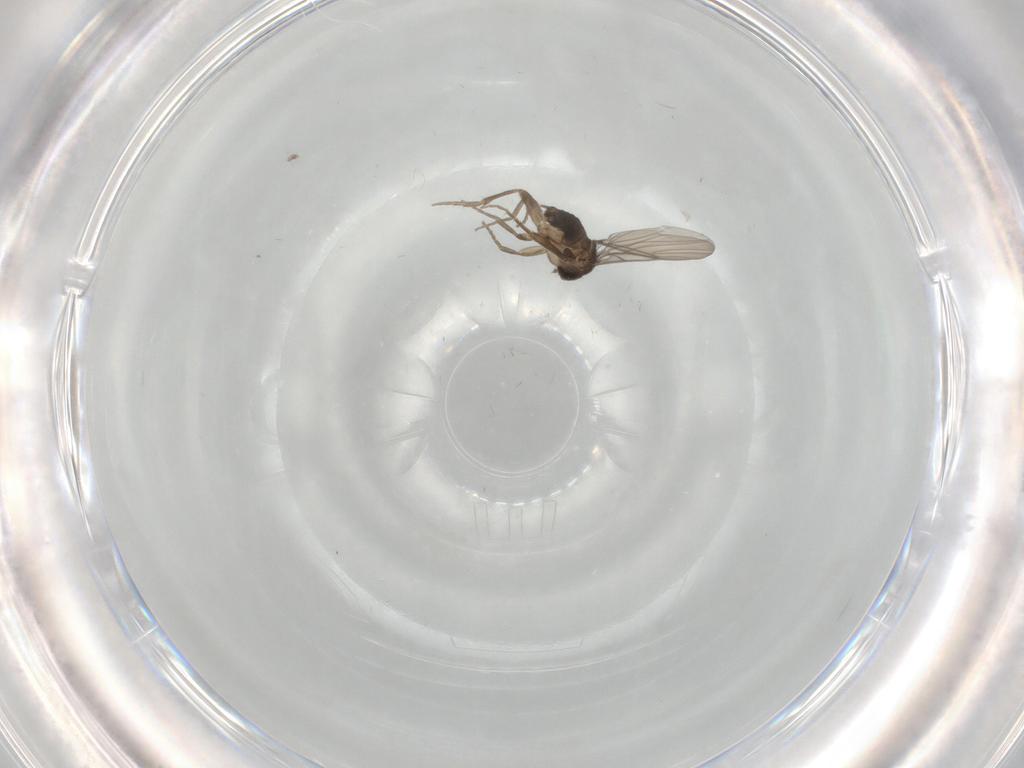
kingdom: Animalia
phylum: Arthropoda
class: Insecta
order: Diptera
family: Phoridae
